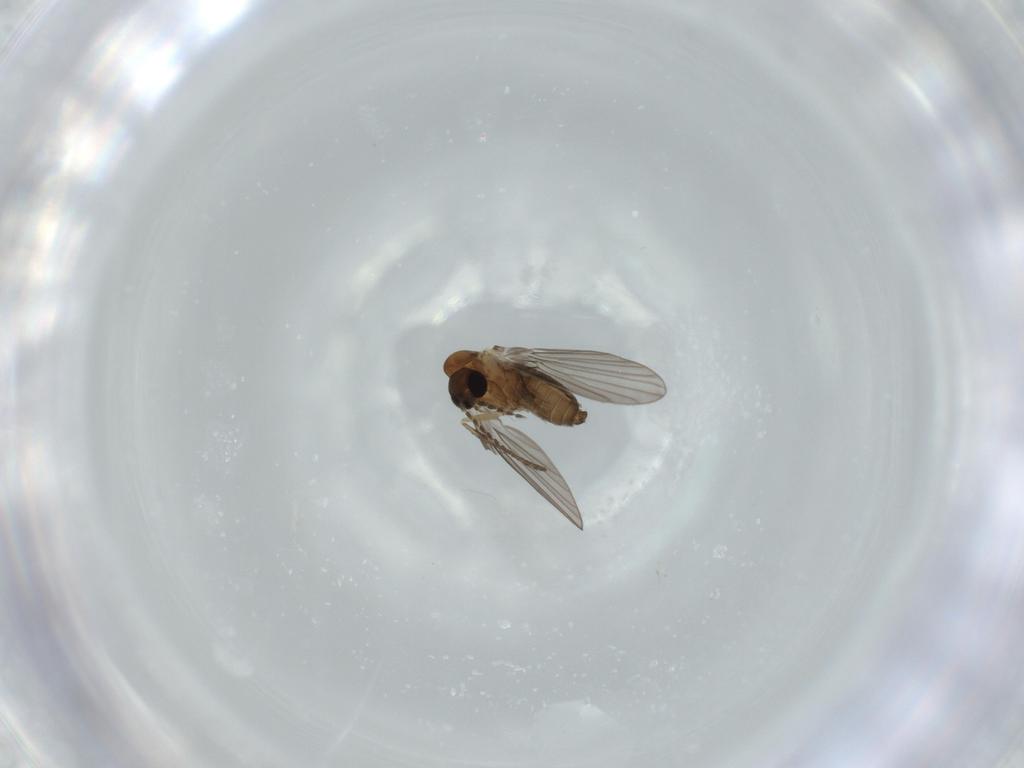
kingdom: Animalia
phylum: Arthropoda
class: Insecta
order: Diptera
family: Psychodidae
